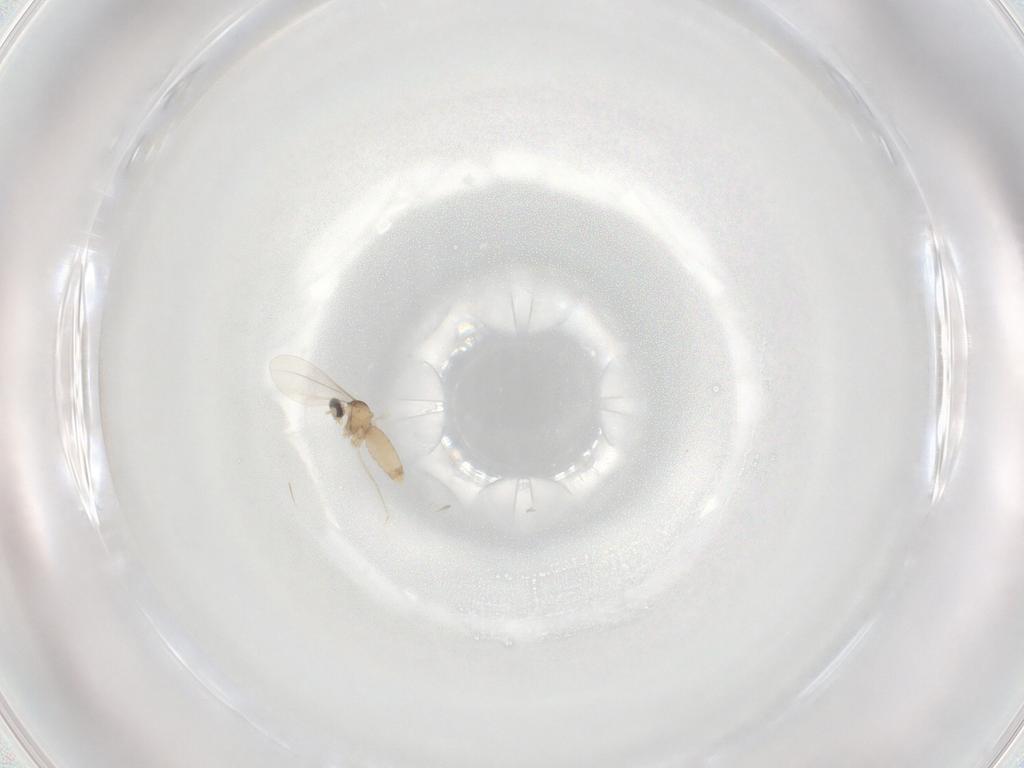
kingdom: Animalia
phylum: Arthropoda
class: Insecta
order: Diptera
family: Cecidomyiidae
